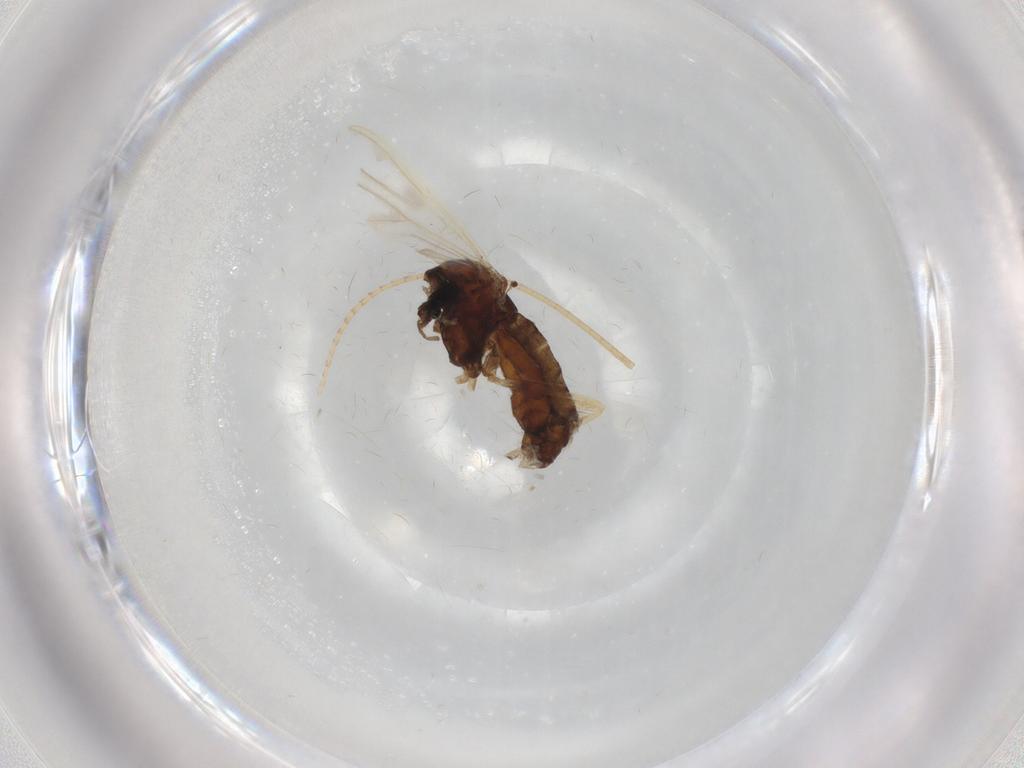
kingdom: Animalia
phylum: Arthropoda
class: Insecta
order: Diptera
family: Chironomidae
